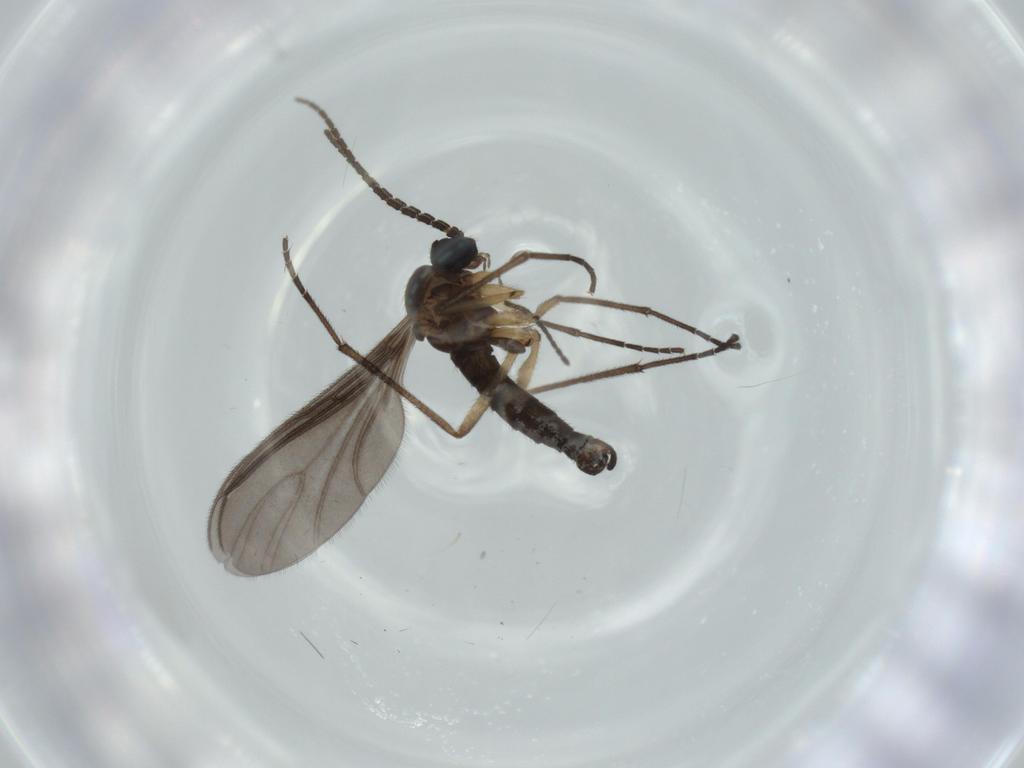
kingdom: Animalia
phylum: Arthropoda
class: Insecta
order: Diptera
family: Sciaridae
